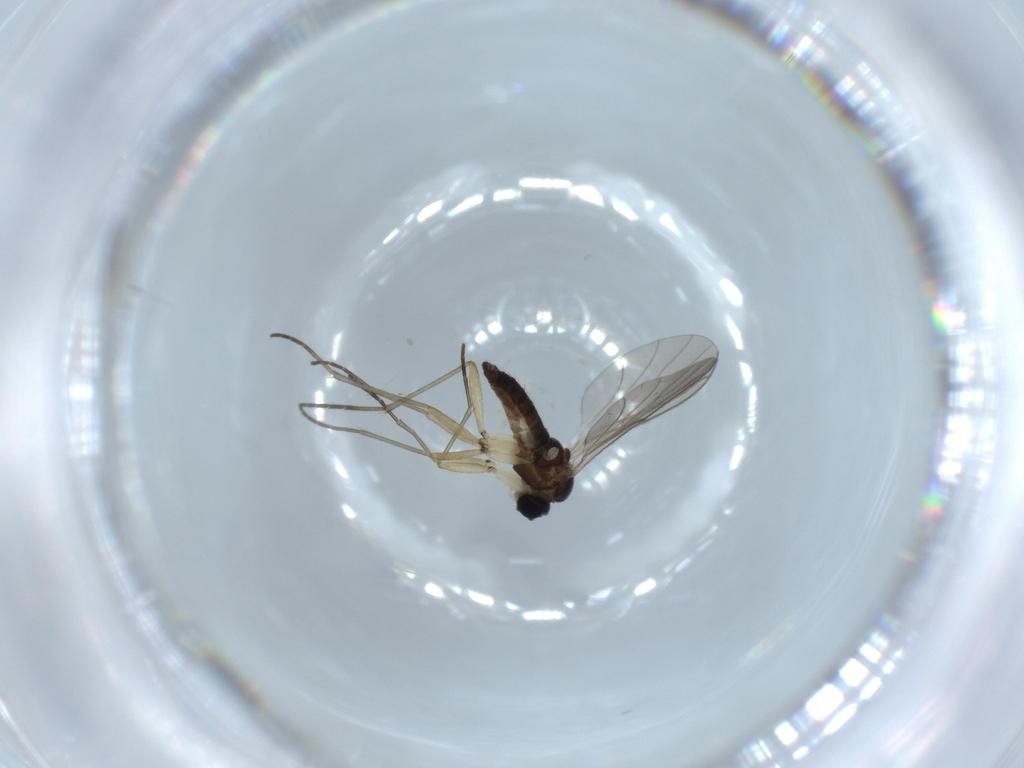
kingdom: Animalia
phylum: Arthropoda
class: Insecta
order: Diptera
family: Sciaridae
